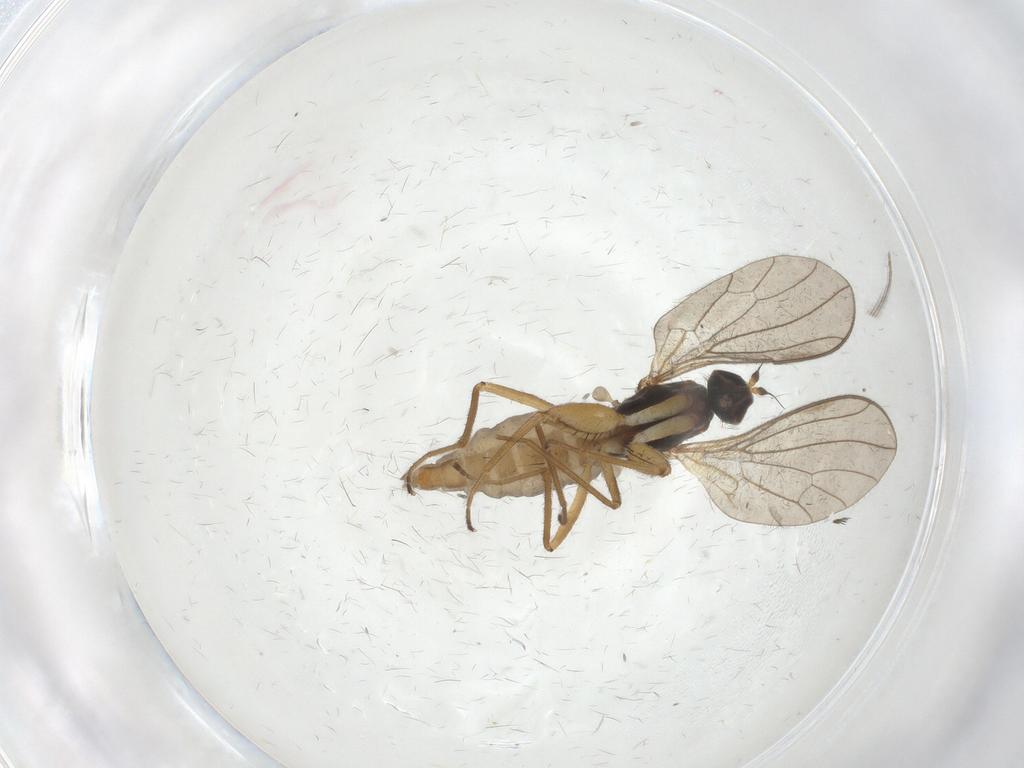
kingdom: Animalia
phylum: Arthropoda
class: Insecta
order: Diptera
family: Empididae
